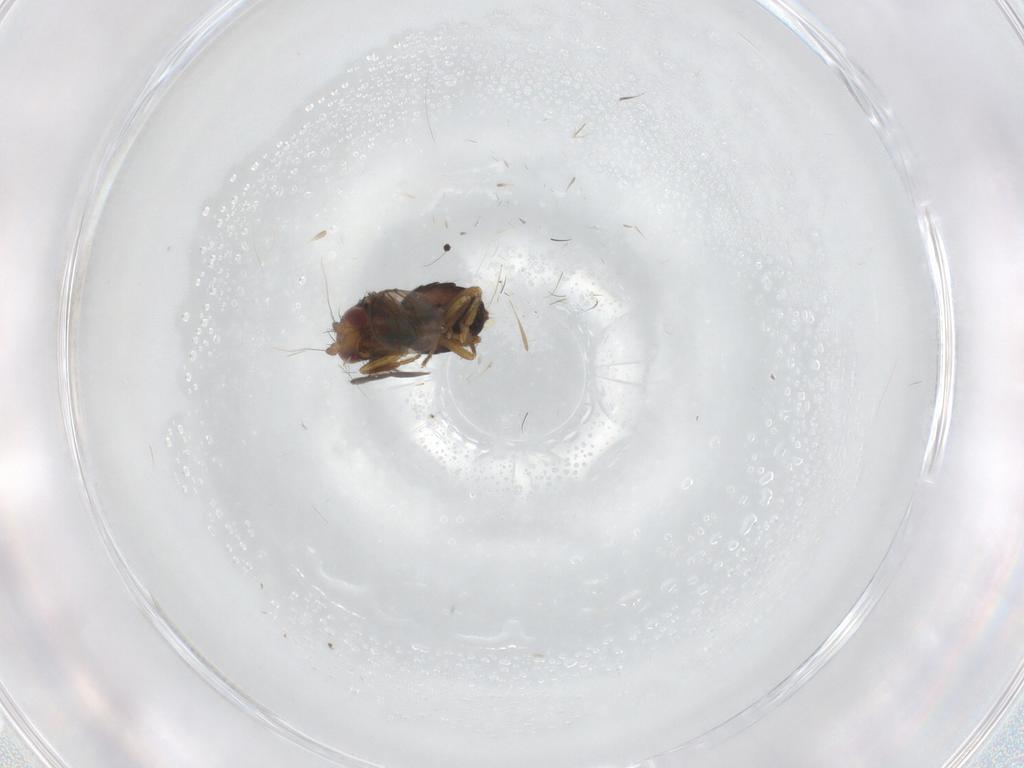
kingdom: Animalia
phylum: Arthropoda
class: Insecta
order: Diptera
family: Sphaeroceridae
